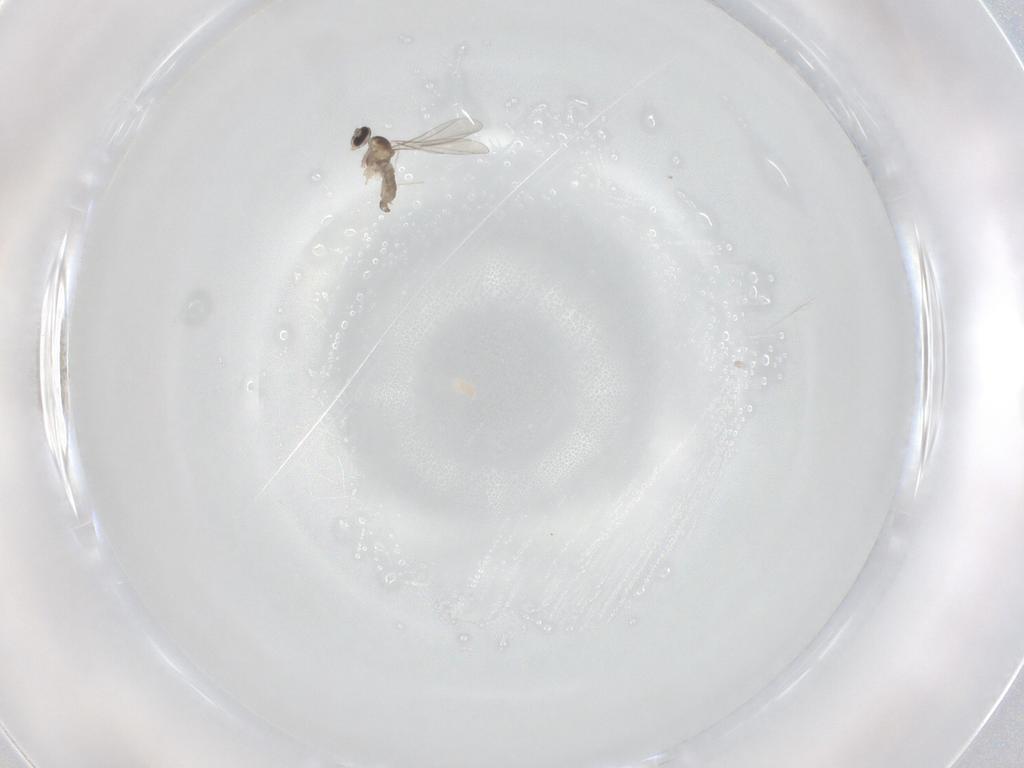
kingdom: Animalia
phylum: Arthropoda
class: Insecta
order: Diptera
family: Cecidomyiidae
